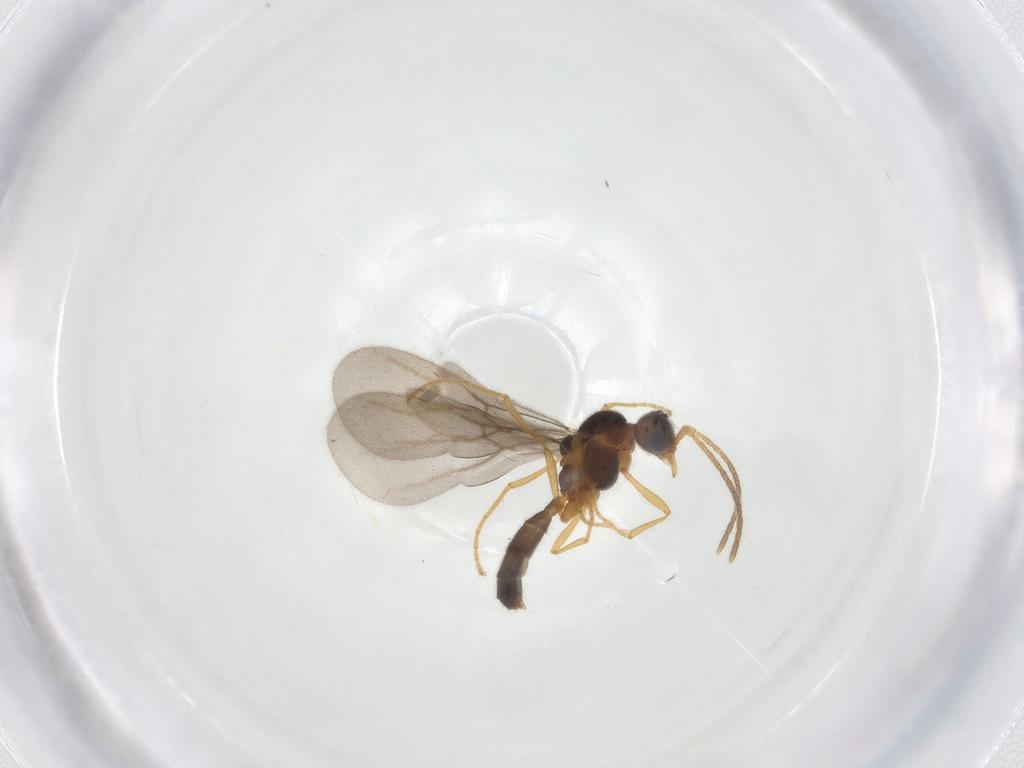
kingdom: Animalia
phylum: Arthropoda
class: Insecta
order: Hymenoptera
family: Formicidae
